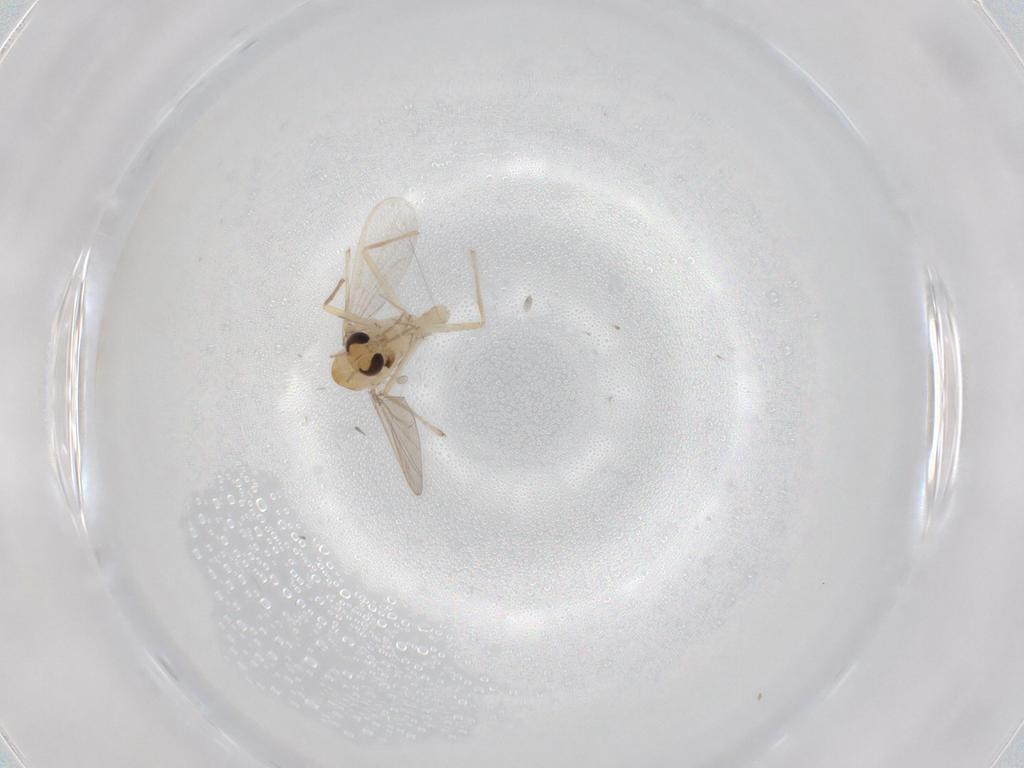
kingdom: Animalia
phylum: Arthropoda
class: Insecta
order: Diptera
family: Chironomidae
